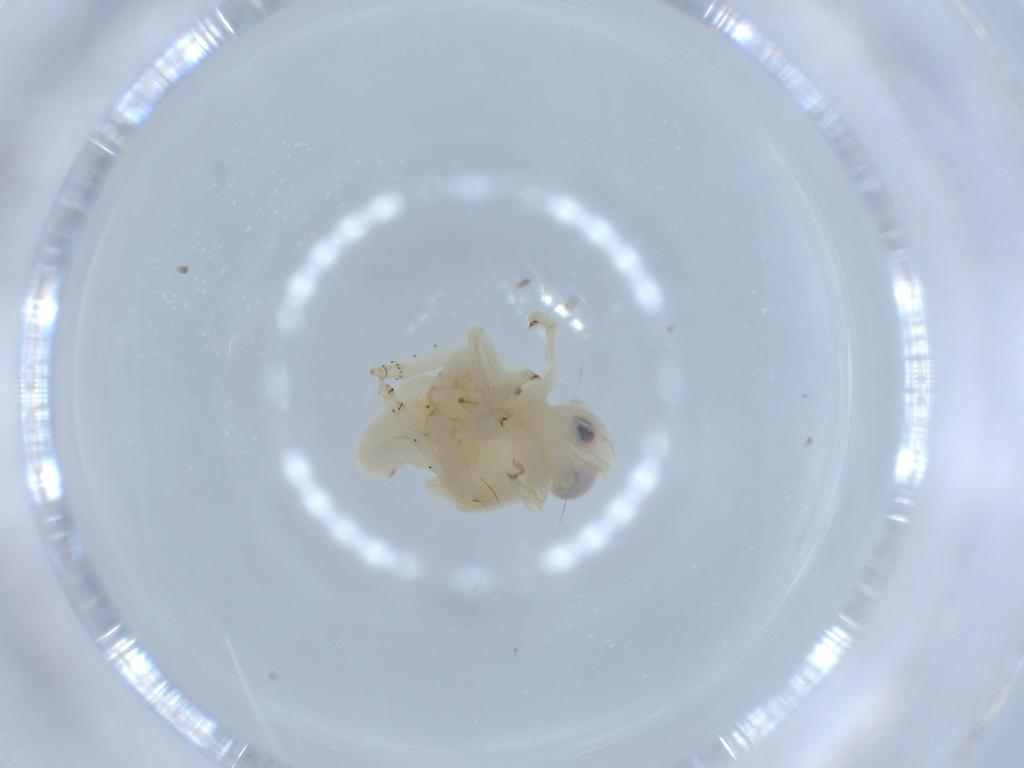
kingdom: Animalia
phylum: Arthropoda
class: Insecta
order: Hemiptera
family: Nogodinidae
